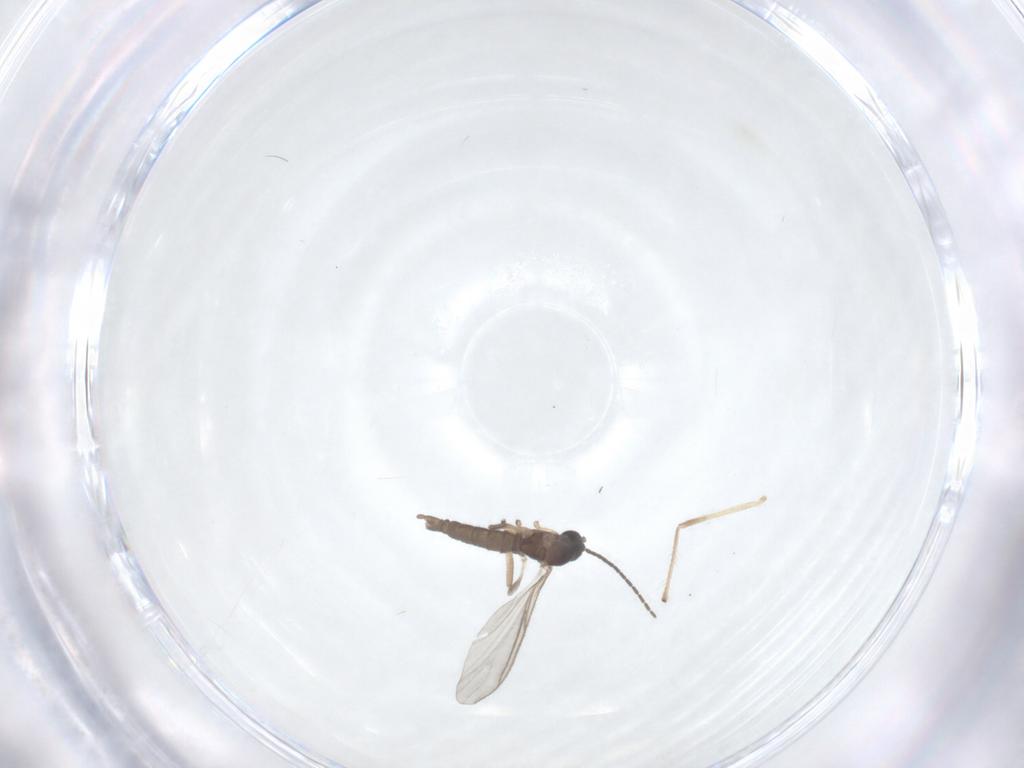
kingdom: Animalia
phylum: Arthropoda
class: Insecta
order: Diptera
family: Sciaridae
